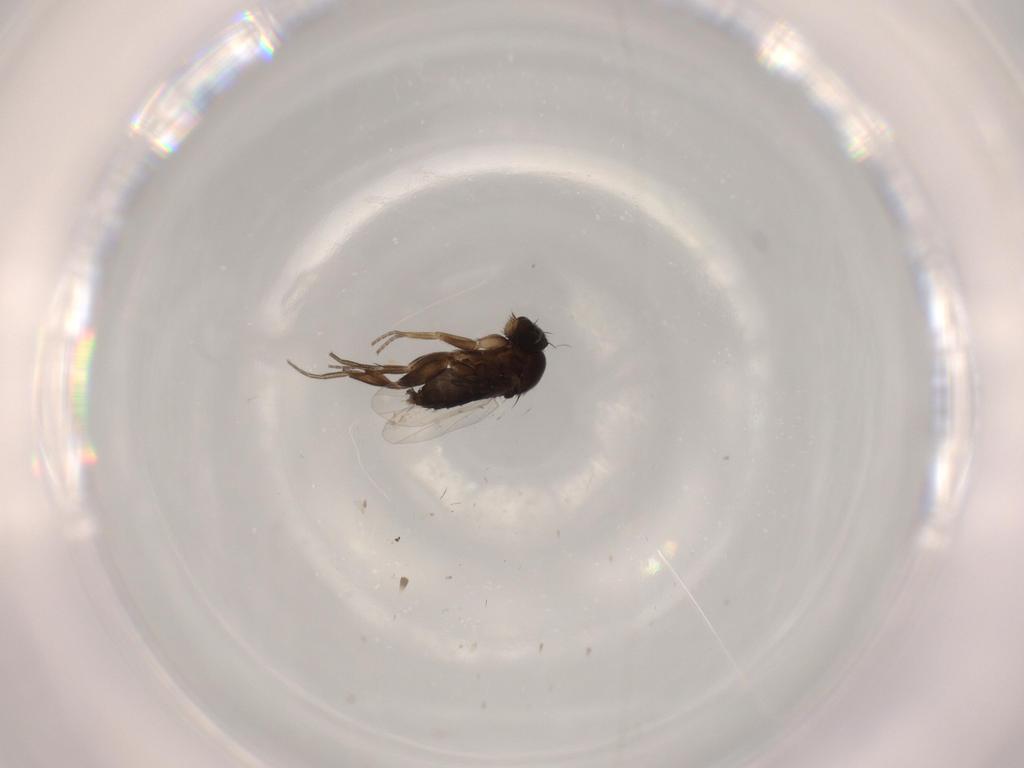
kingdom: Animalia
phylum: Arthropoda
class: Insecta
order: Diptera
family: Phoridae
